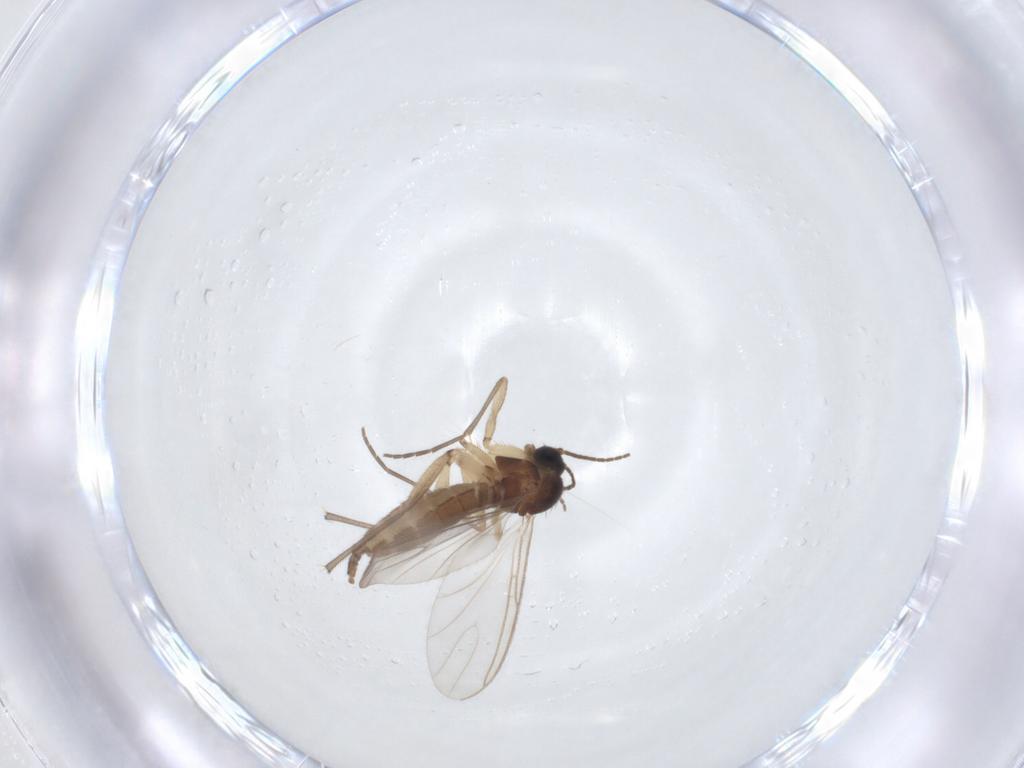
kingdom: Animalia
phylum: Arthropoda
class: Insecta
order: Diptera
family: Sciaridae
